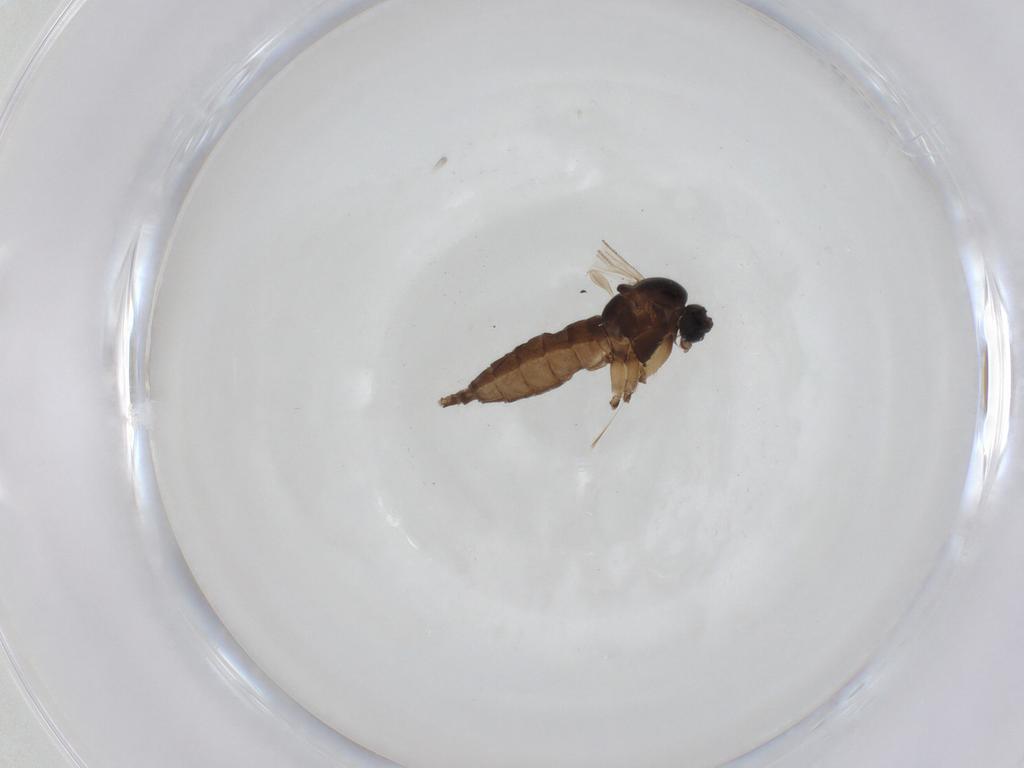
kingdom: Animalia
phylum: Arthropoda
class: Insecta
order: Diptera
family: Sciaridae
